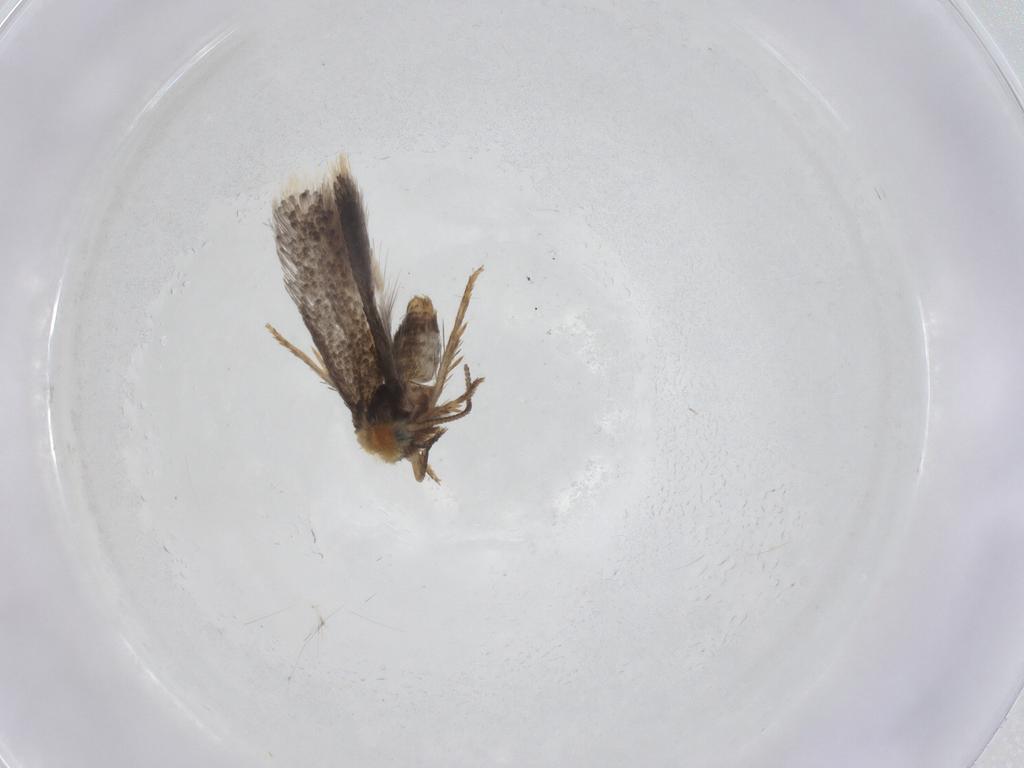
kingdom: Animalia
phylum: Arthropoda
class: Insecta
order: Lepidoptera
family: Nepticulidae
